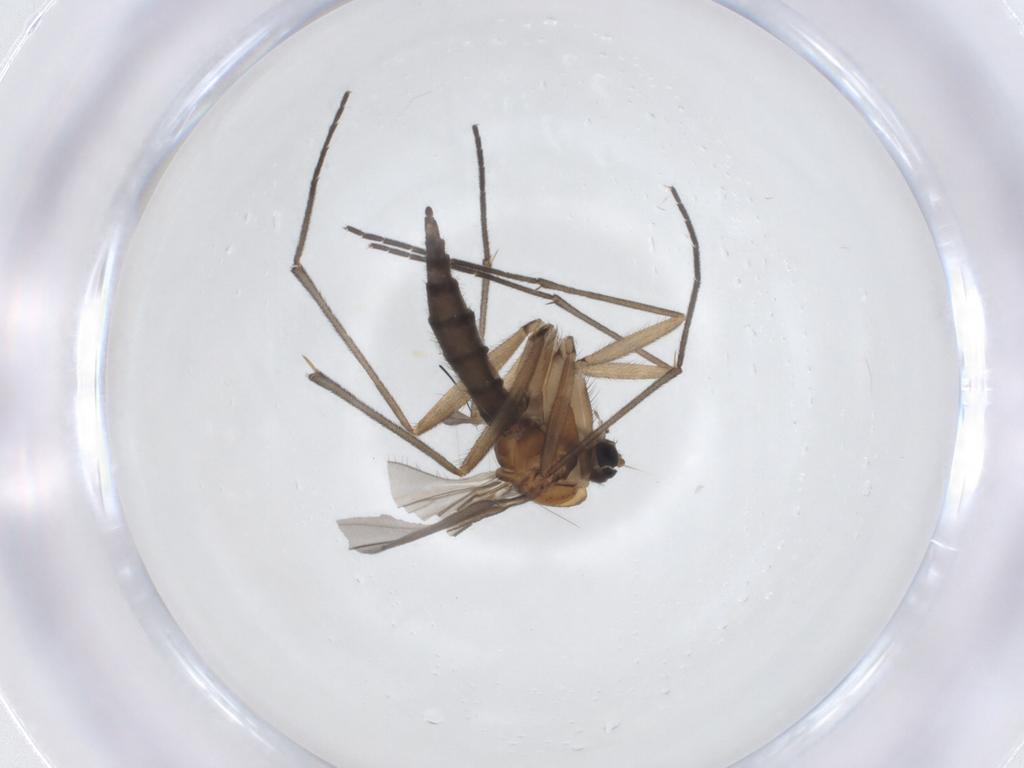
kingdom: Animalia
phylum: Arthropoda
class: Insecta
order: Diptera
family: Sciaridae
